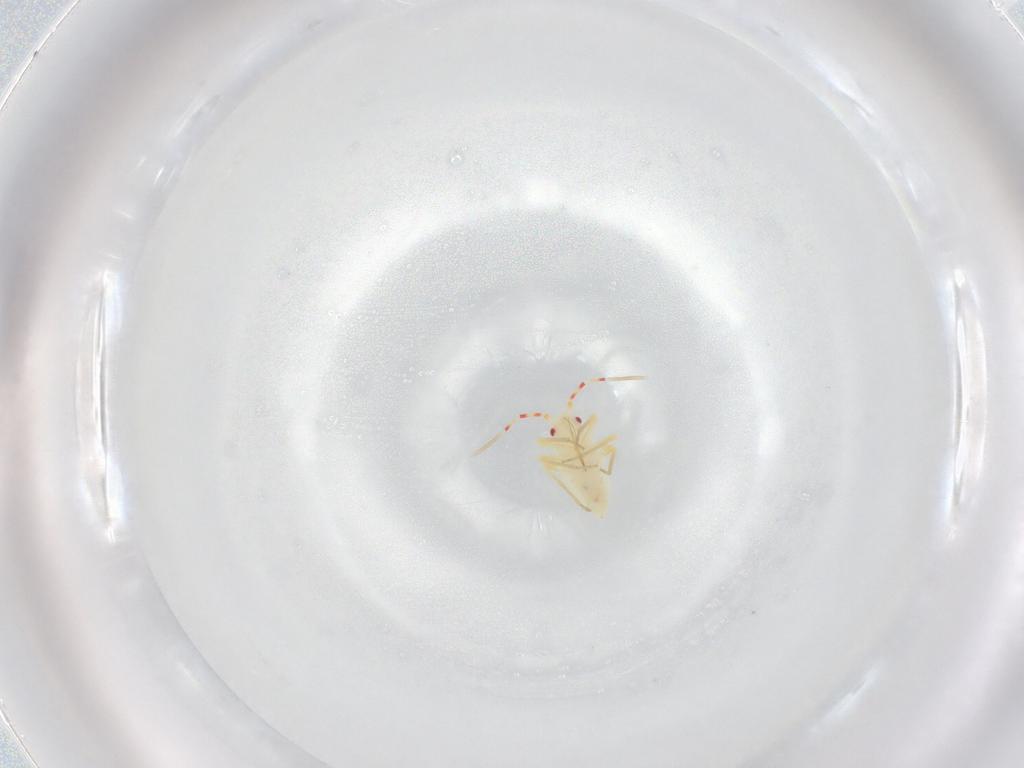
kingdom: Animalia
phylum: Arthropoda
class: Insecta
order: Hemiptera
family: Miridae
